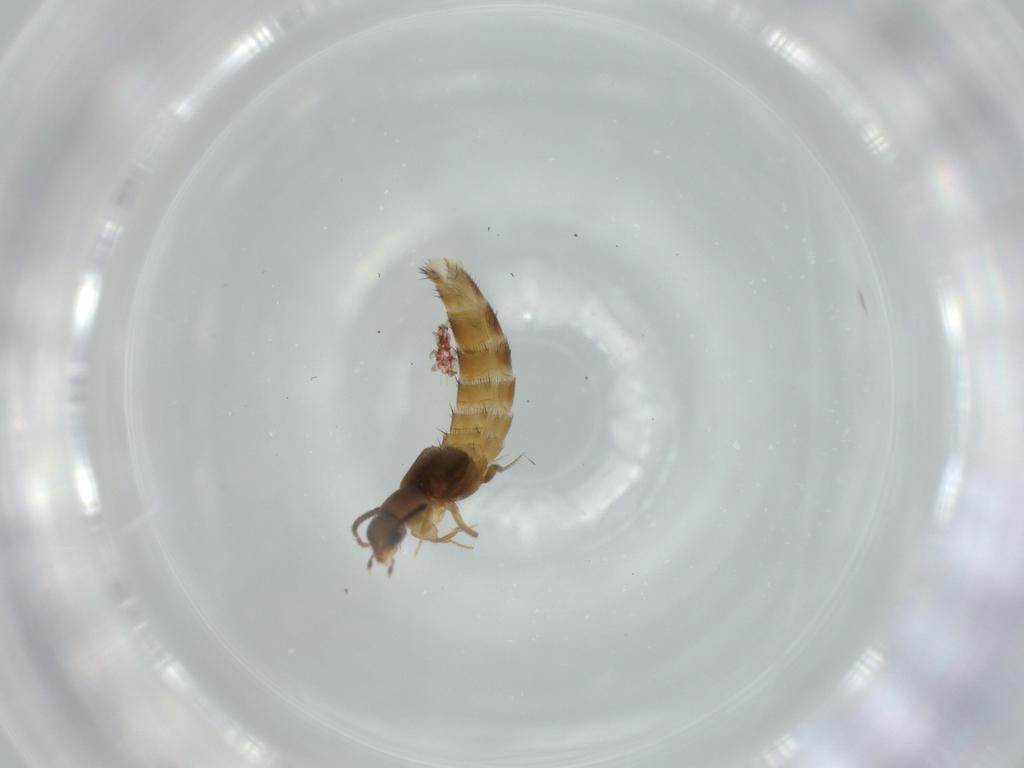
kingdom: Animalia
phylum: Arthropoda
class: Insecta
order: Coleoptera
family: Staphylinidae
